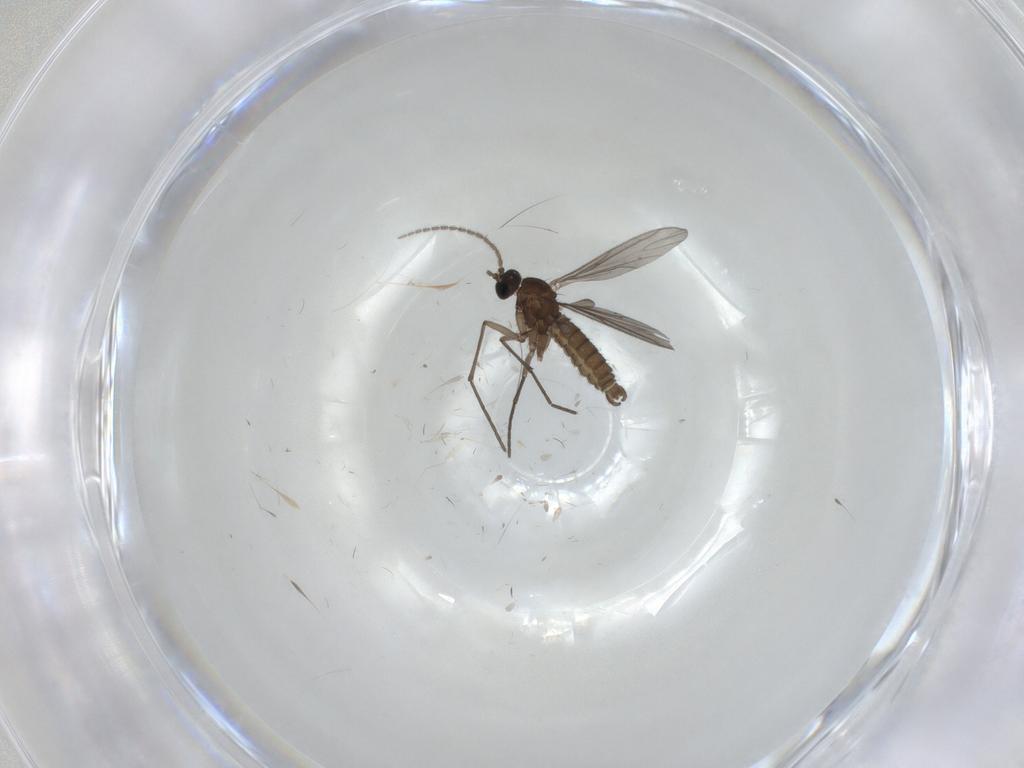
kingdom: Animalia
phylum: Arthropoda
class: Insecta
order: Diptera
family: Sciaridae
